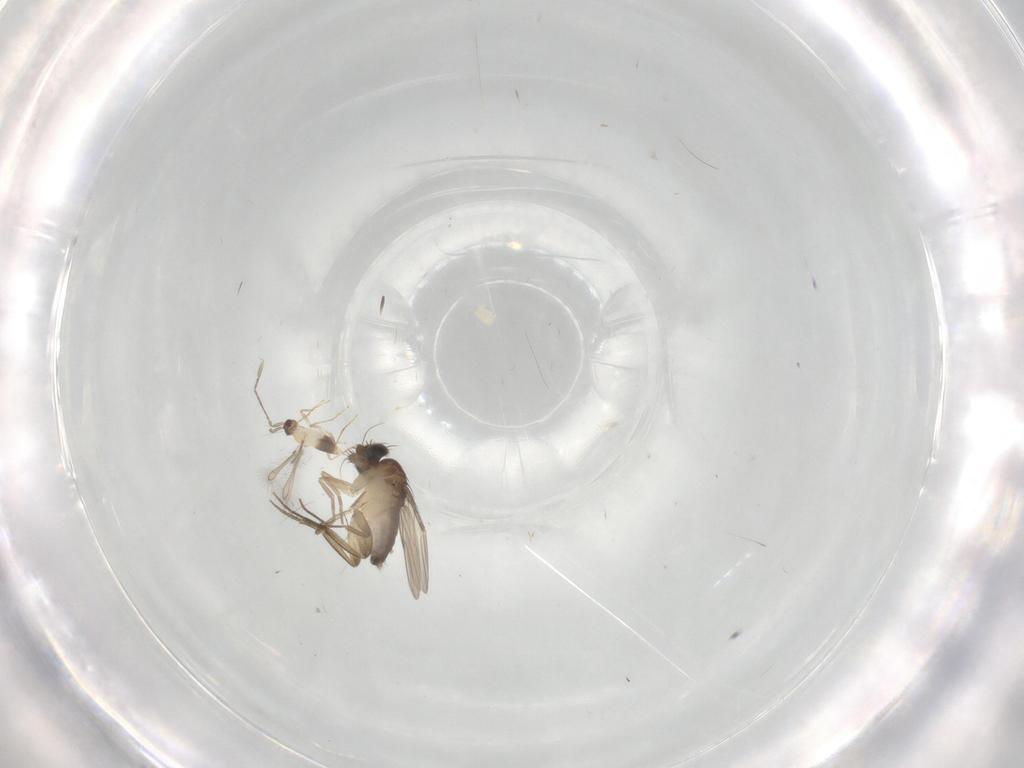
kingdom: Animalia
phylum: Arthropoda
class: Insecta
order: Diptera
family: Phoridae
